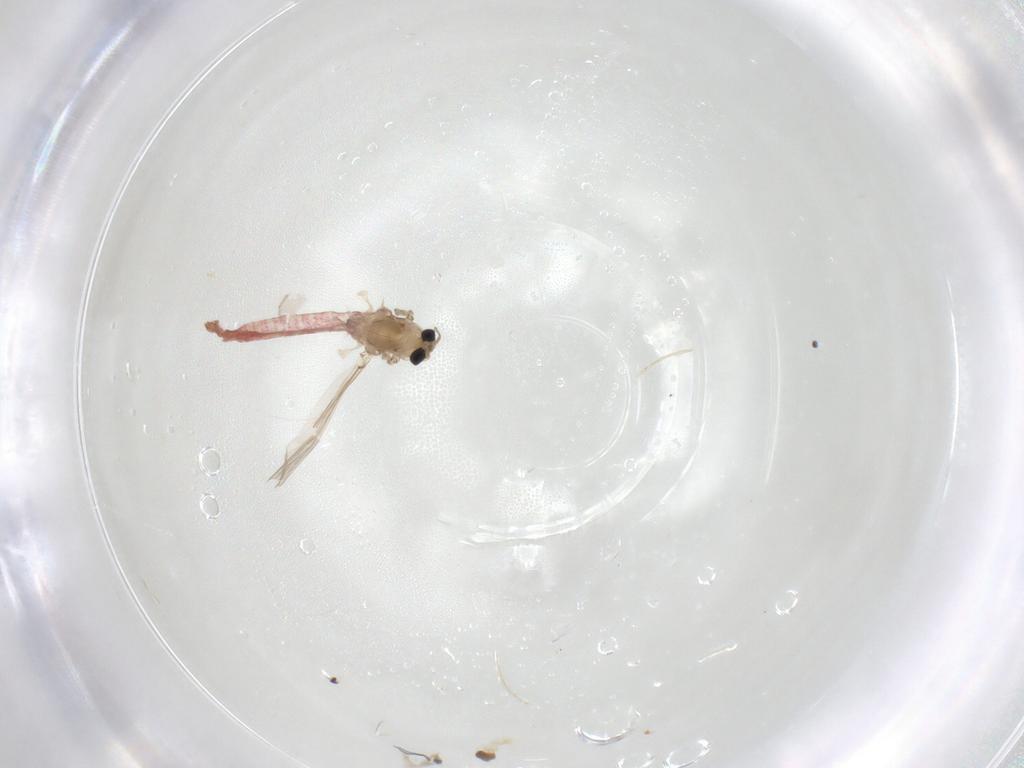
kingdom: Animalia
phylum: Arthropoda
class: Insecta
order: Diptera
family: Chironomidae
